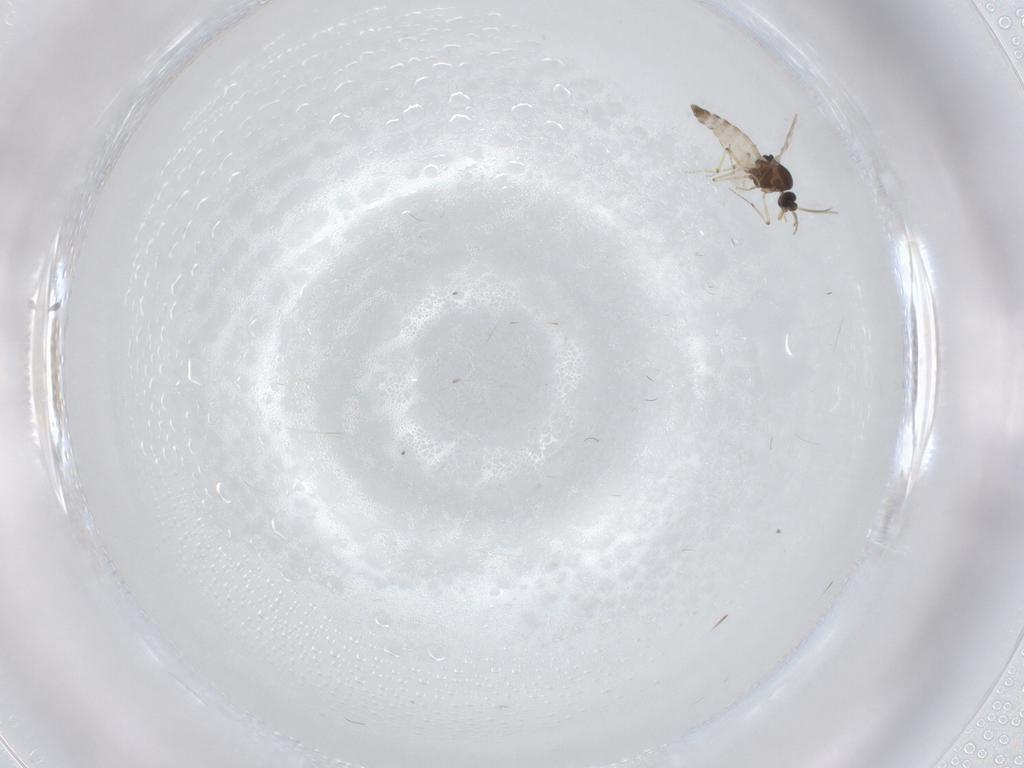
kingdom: Animalia
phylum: Arthropoda
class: Insecta
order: Diptera
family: Cecidomyiidae
